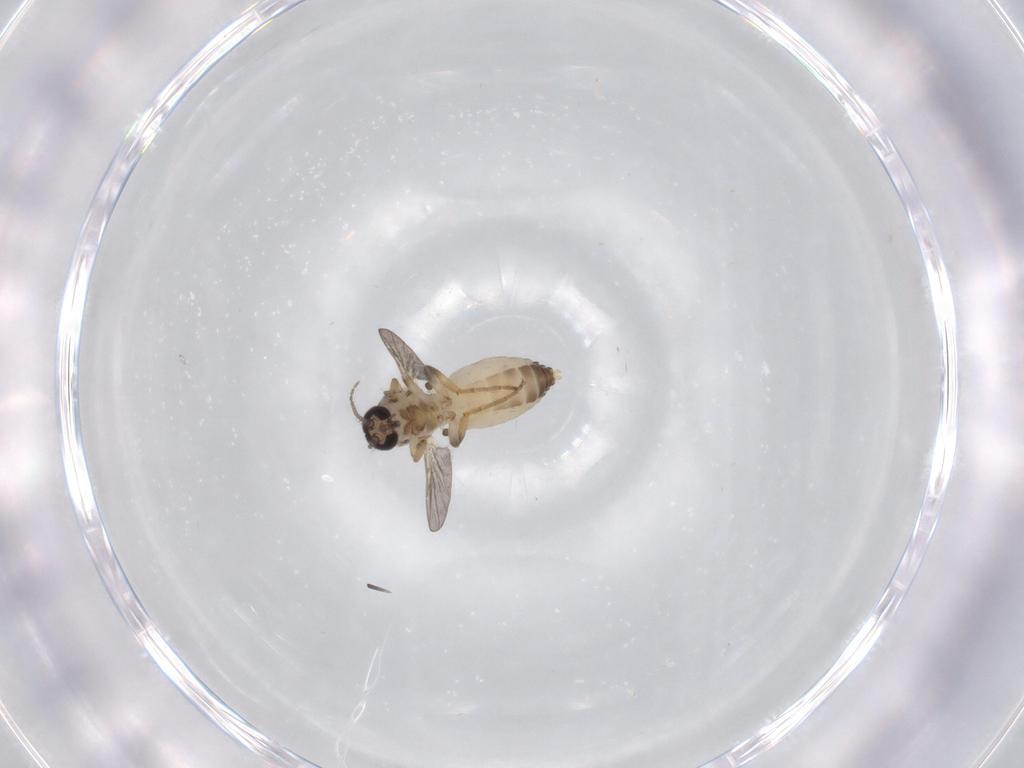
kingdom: Animalia
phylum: Arthropoda
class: Insecta
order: Diptera
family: Ceratopogonidae
